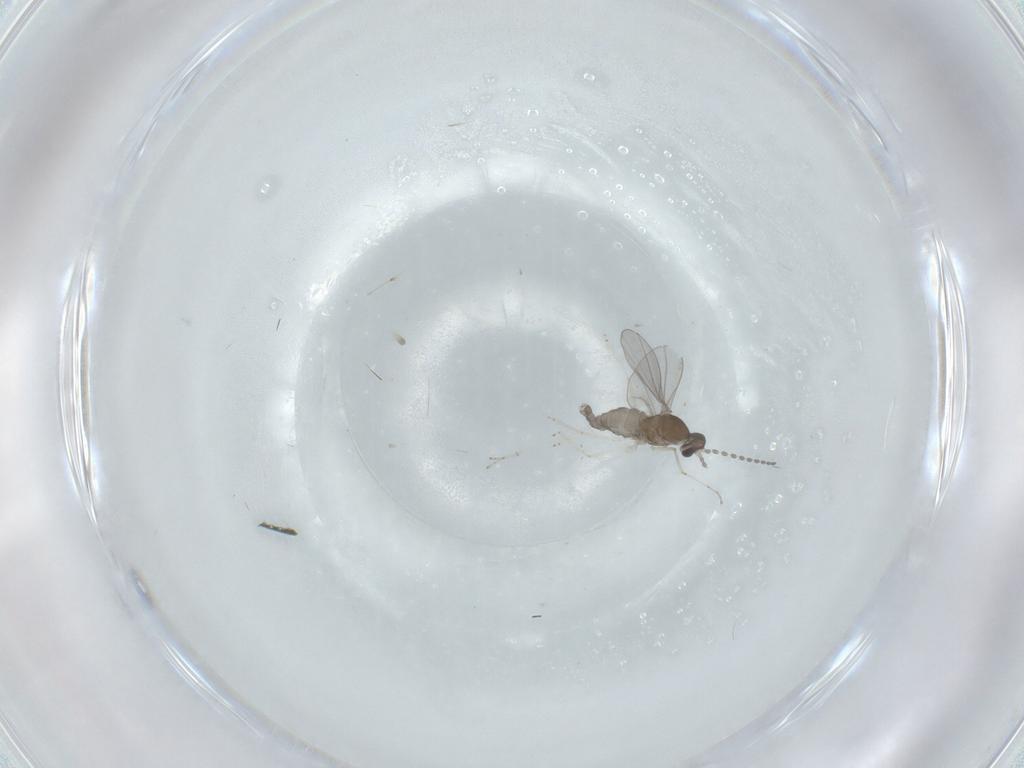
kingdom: Animalia
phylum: Arthropoda
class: Insecta
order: Diptera
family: Cecidomyiidae
